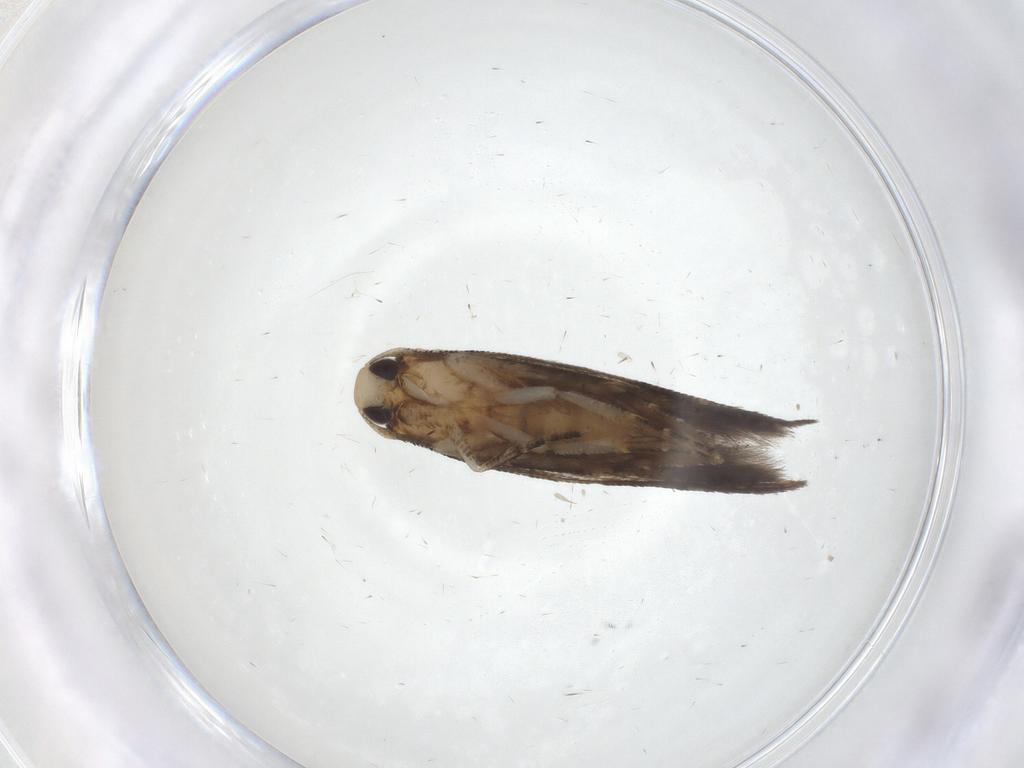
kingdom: Animalia
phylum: Arthropoda
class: Insecta
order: Lepidoptera
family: Cosmopterigidae
